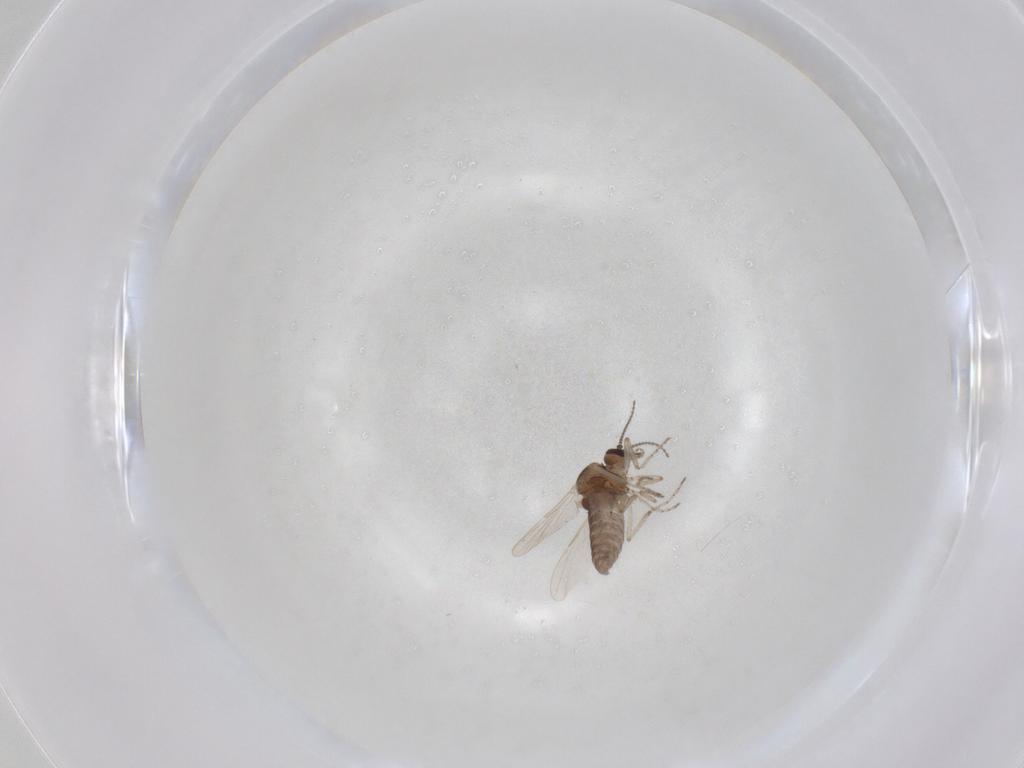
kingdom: Animalia
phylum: Arthropoda
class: Insecta
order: Diptera
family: Ceratopogonidae
